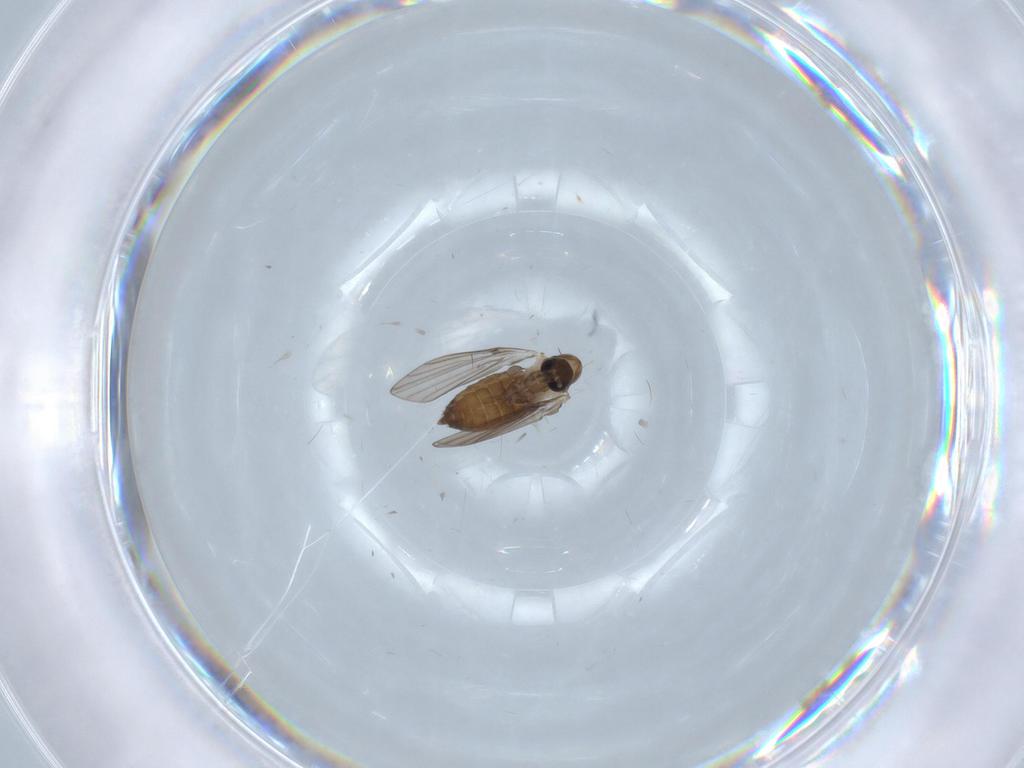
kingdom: Animalia
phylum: Arthropoda
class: Insecta
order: Diptera
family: Psychodidae
